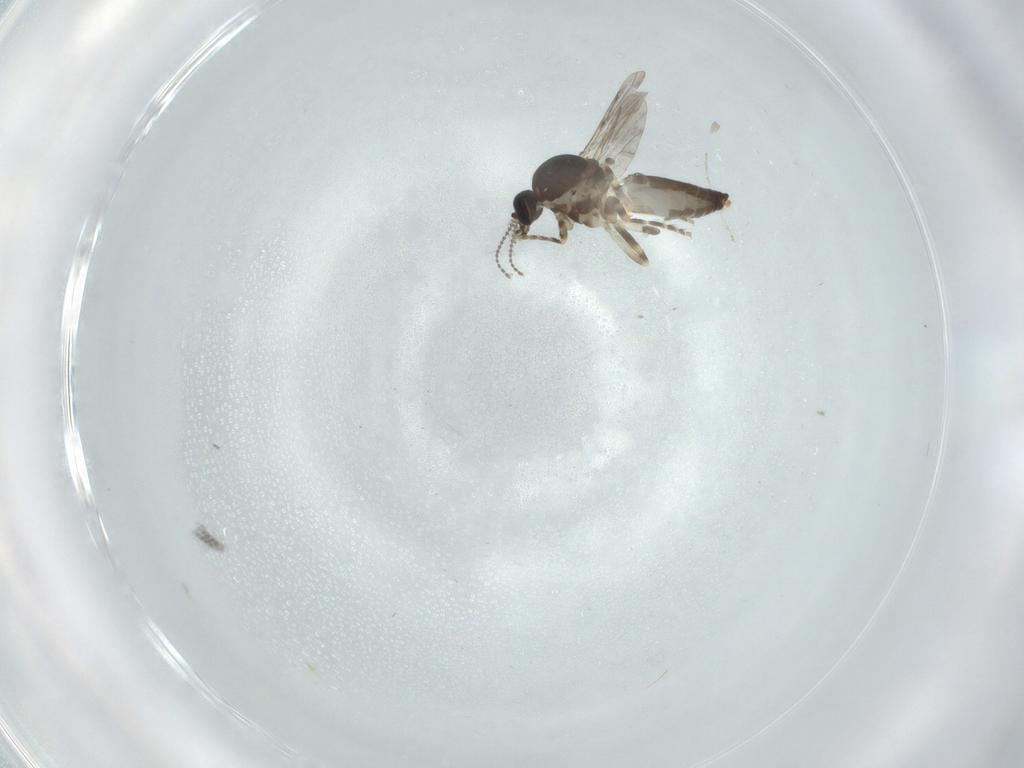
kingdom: Animalia
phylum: Arthropoda
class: Insecta
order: Diptera
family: Ceratopogonidae
